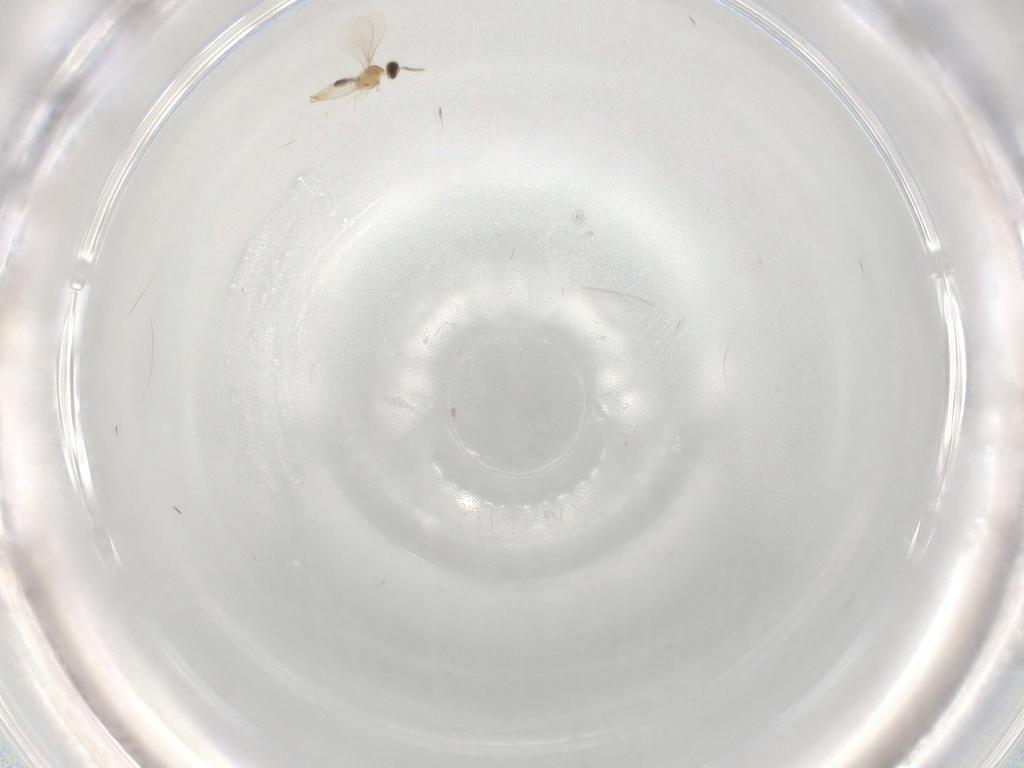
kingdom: Animalia
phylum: Arthropoda
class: Insecta
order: Diptera
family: Cecidomyiidae
